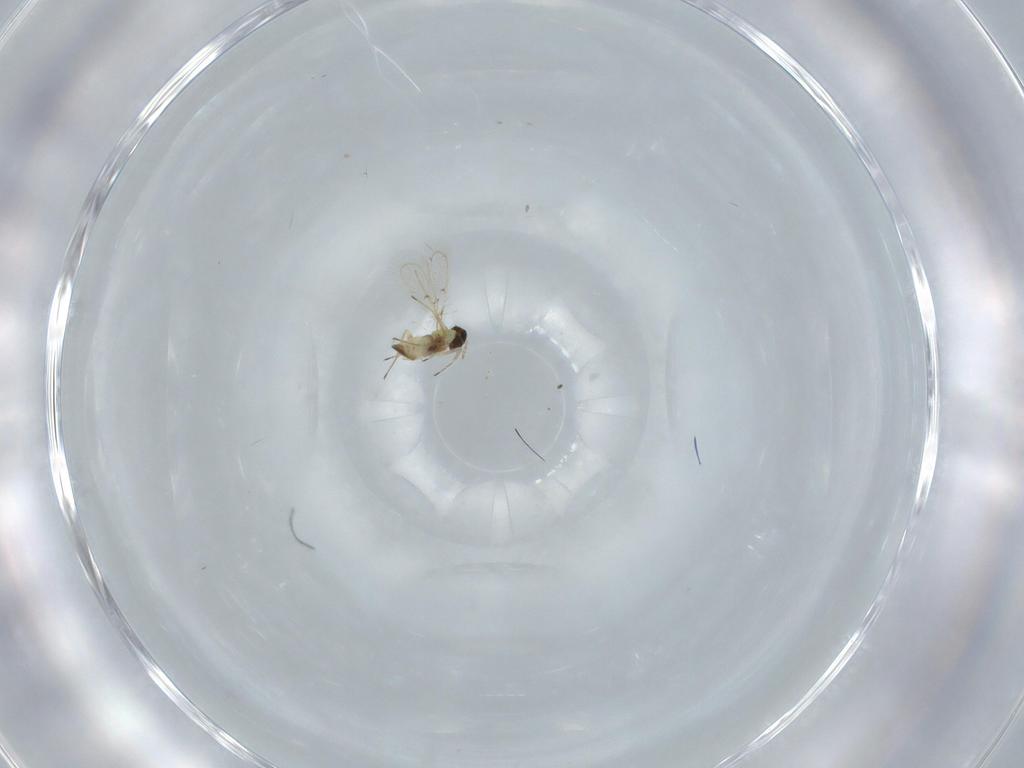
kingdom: Animalia
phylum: Arthropoda
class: Insecta
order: Hymenoptera
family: Trichogrammatidae
